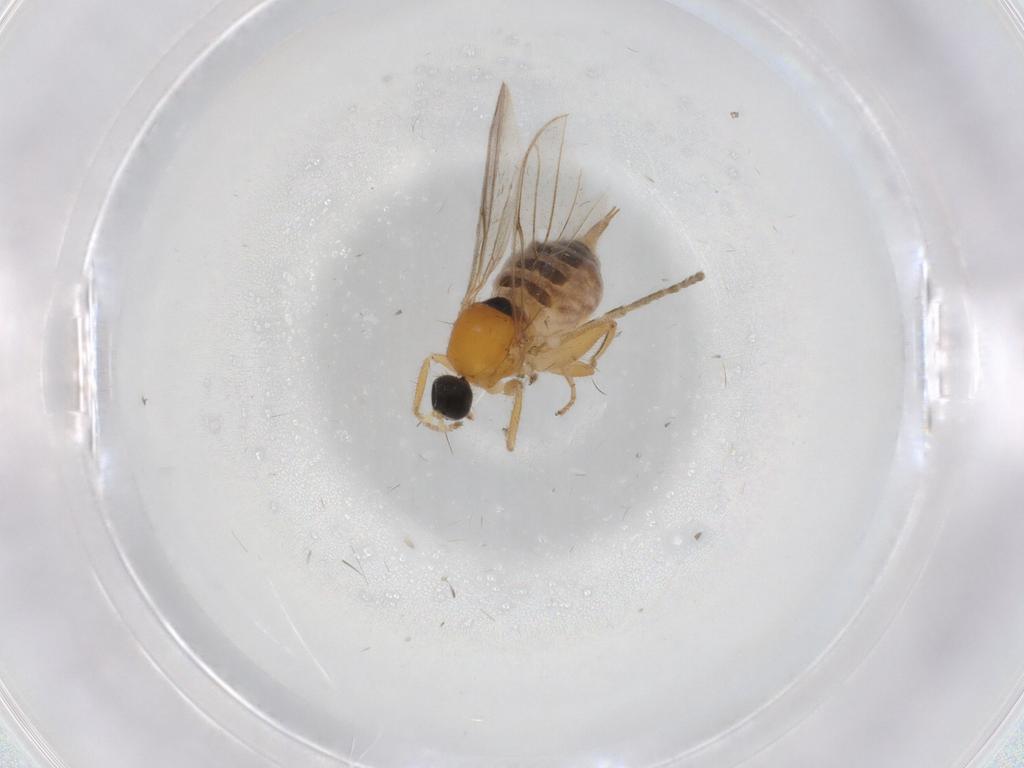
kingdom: Animalia
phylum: Arthropoda
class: Insecta
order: Diptera
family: Hybotidae
